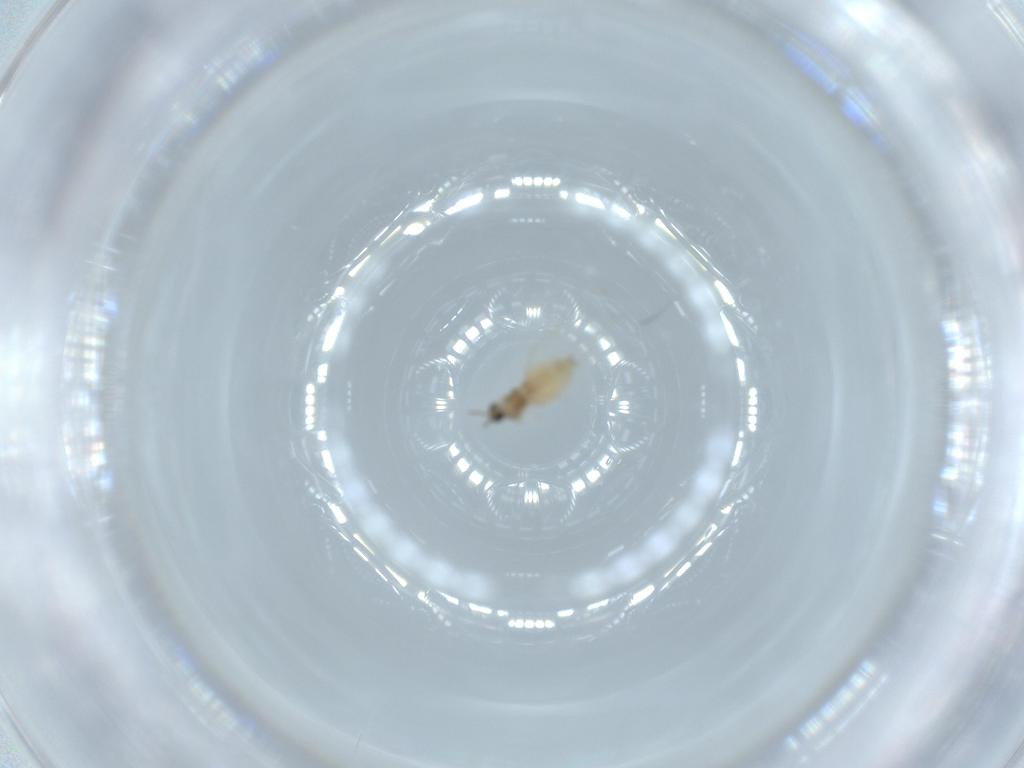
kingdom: Animalia
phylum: Arthropoda
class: Insecta
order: Diptera
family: Cecidomyiidae
